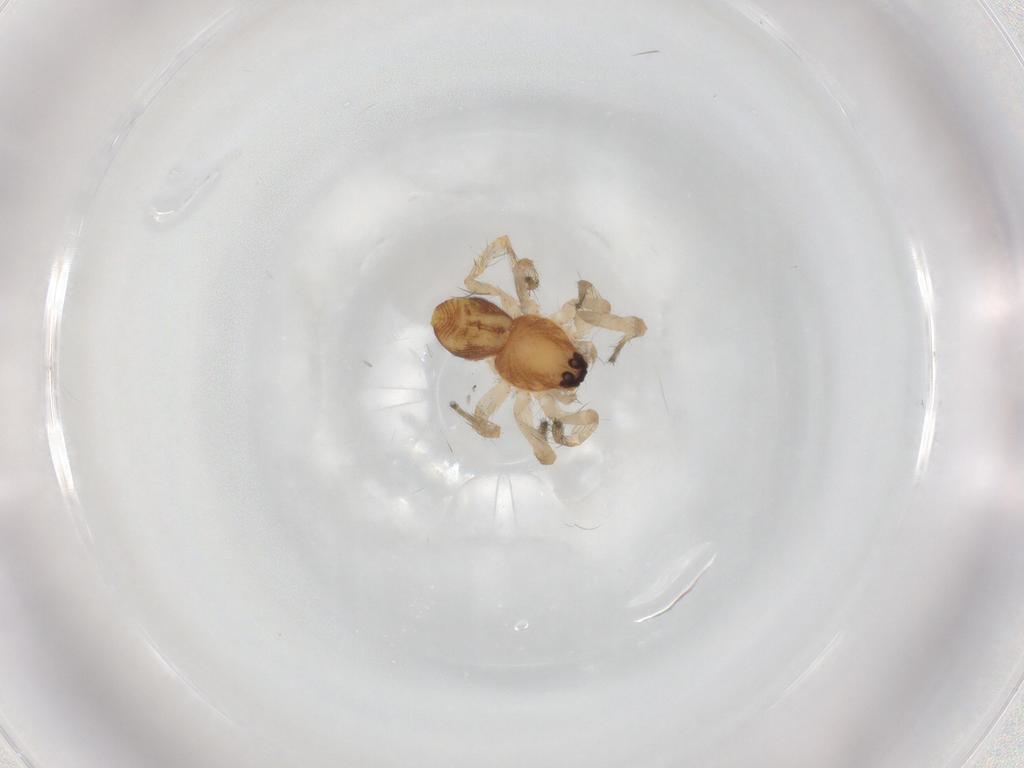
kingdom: Animalia
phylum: Arthropoda
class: Arachnida
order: Araneae
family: Anyphaenidae
